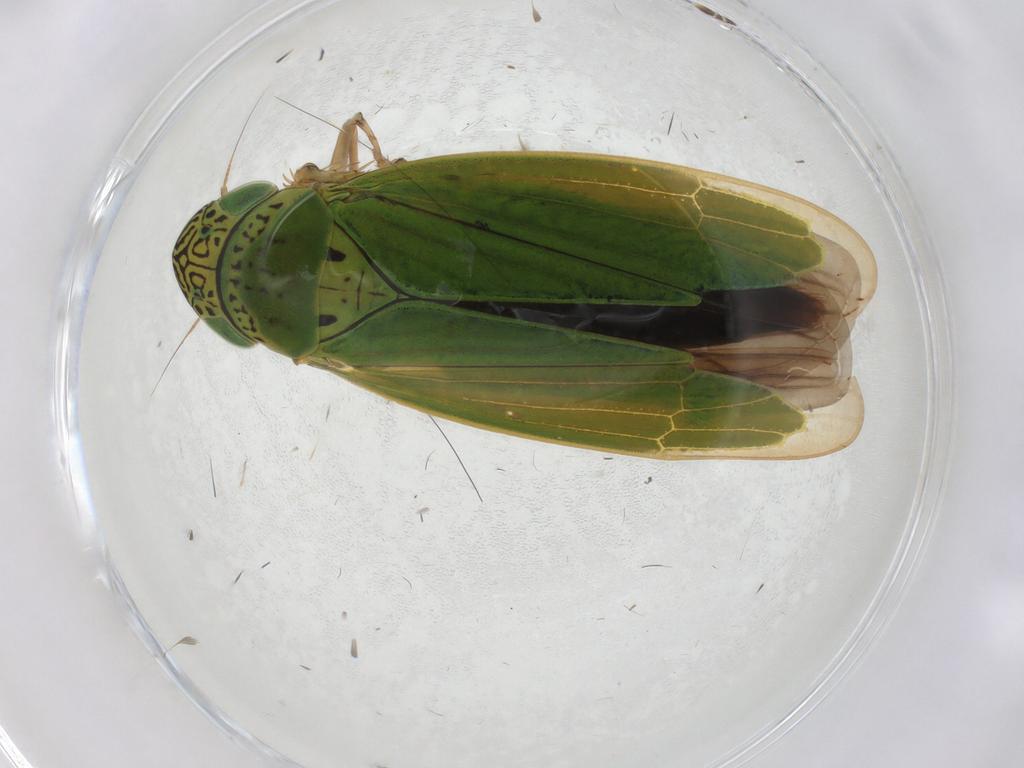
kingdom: Animalia
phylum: Arthropoda
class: Insecta
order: Hemiptera
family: Cicadellidae
